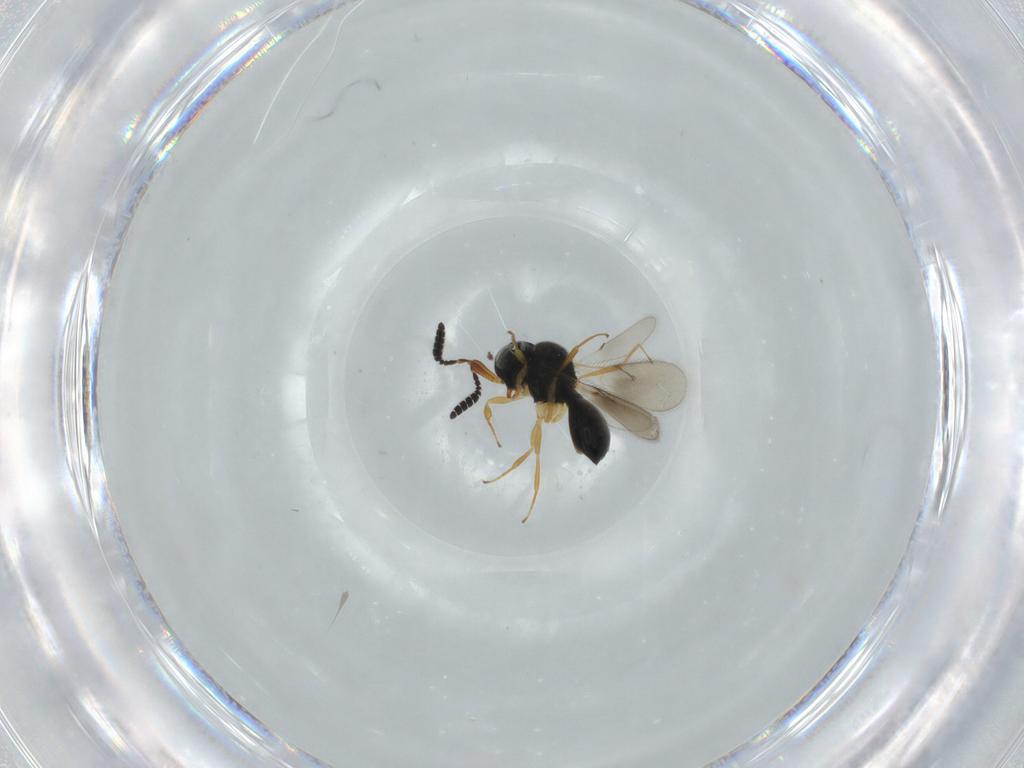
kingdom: Animalia
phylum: Arthropoda
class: Insecta
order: Hymenoptera
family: Scelionidae
